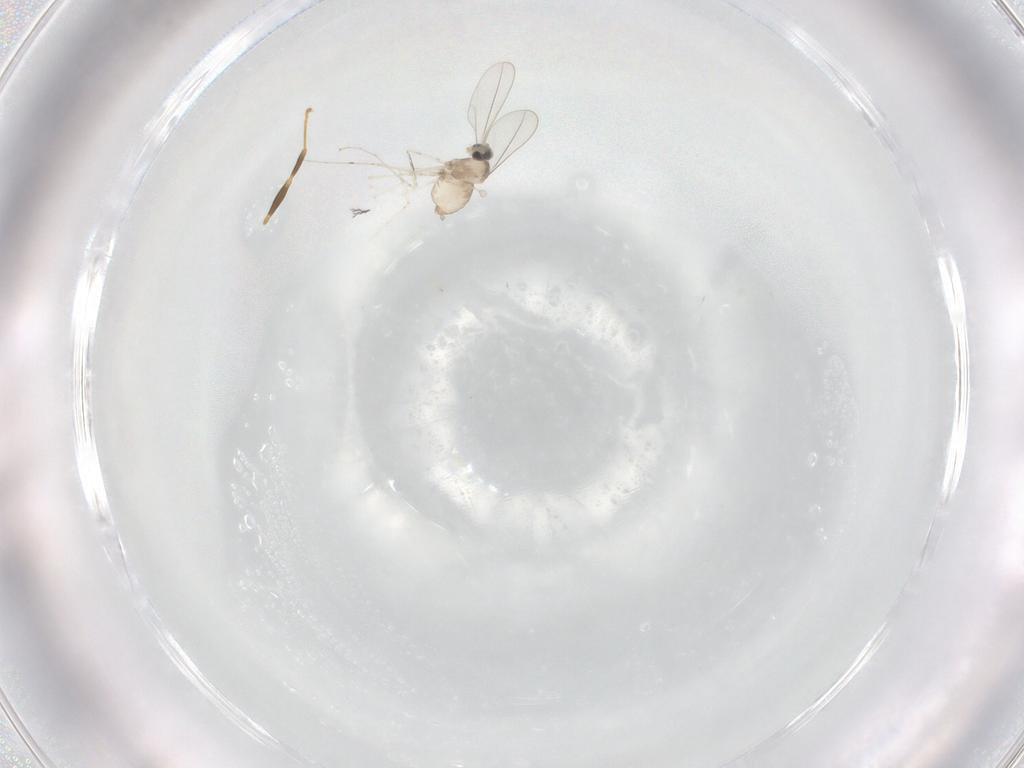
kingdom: Animalia
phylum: Arthropoda
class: Insecta
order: Diptera
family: Cecidomyiidae
